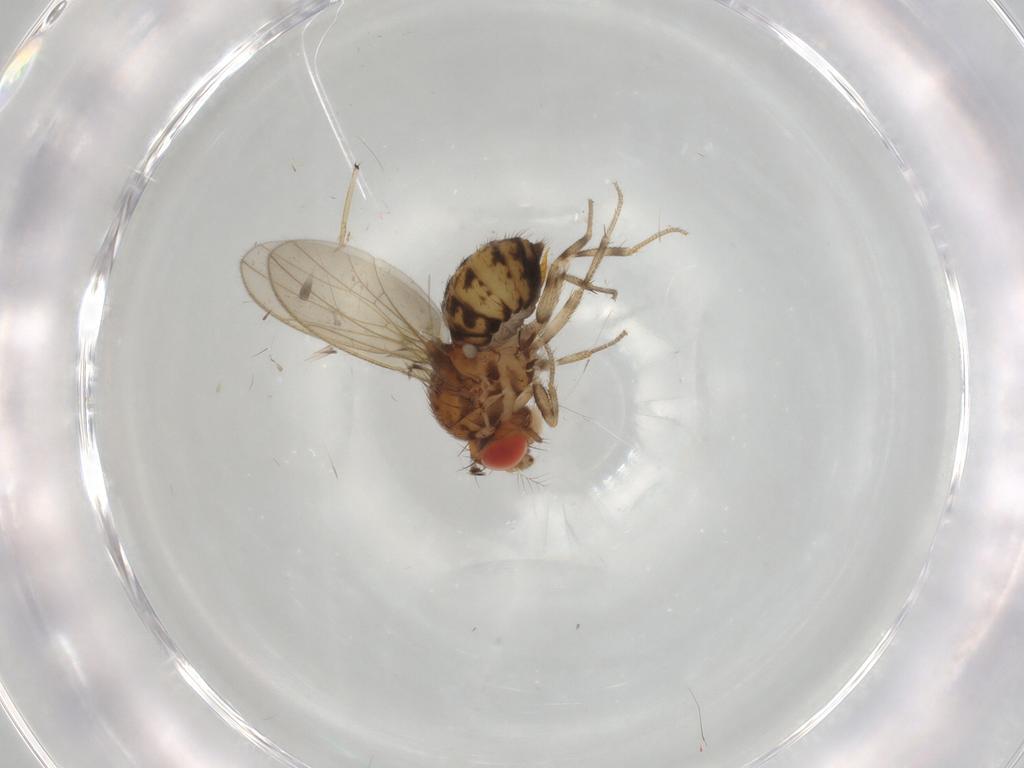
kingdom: Animalia
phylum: Arthropoda
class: Insecta
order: Diptera
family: Drosophilidae
